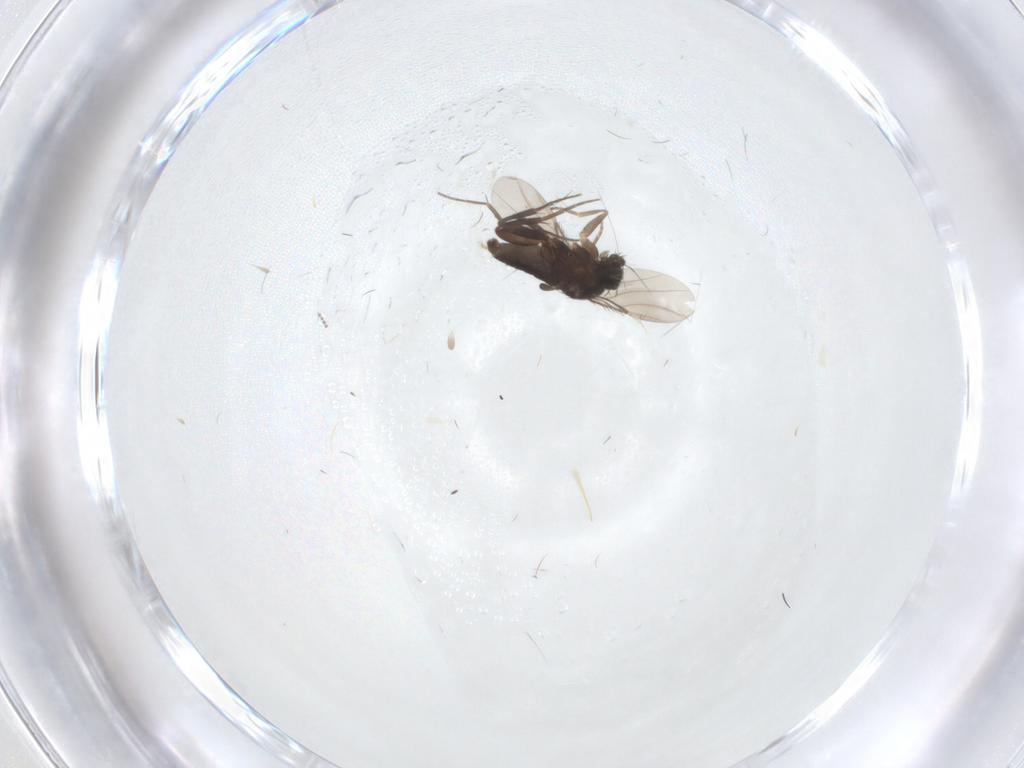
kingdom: Animalia
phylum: Arthropoda
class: Insecta
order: Diptera
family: Phoridae
